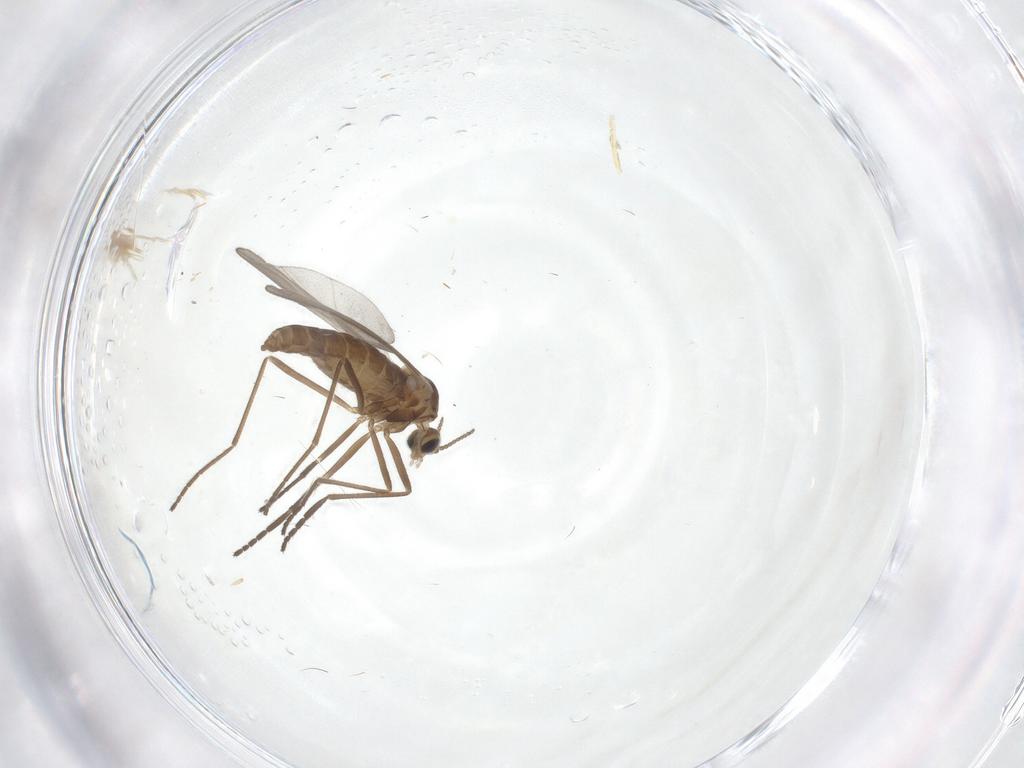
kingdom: Animalia
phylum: Arthropoda
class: Insecta
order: Diptera
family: Cecidomyiidae
